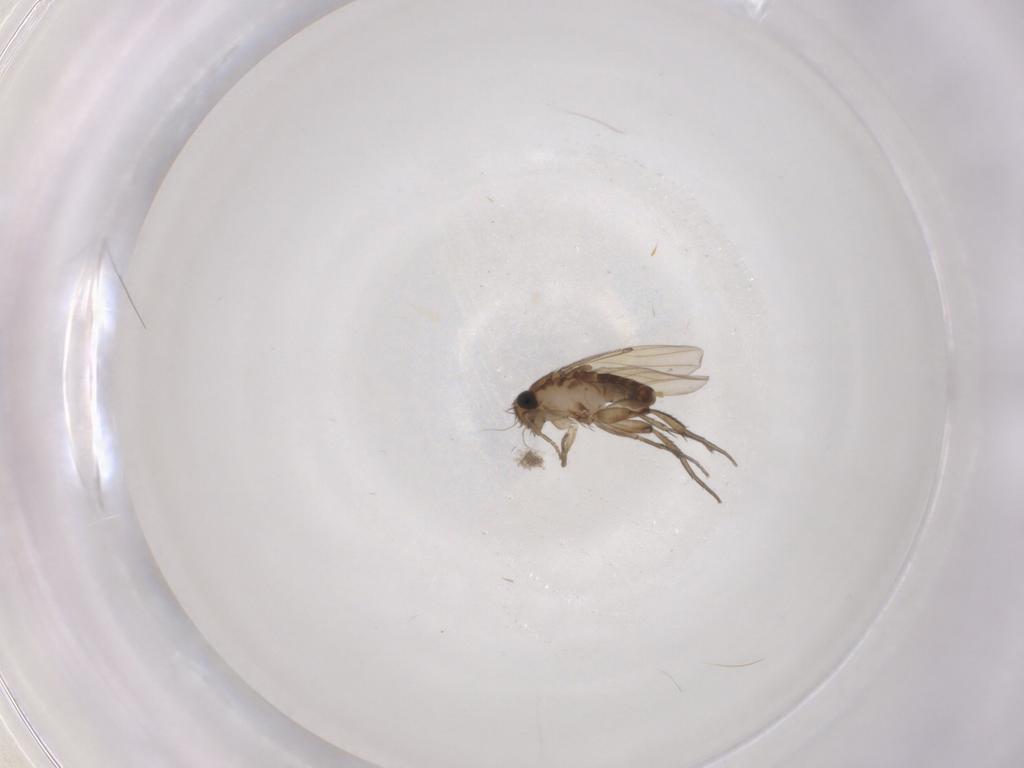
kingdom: Animalia
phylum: Arthropoda
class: Insecta
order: Diptera
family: Phoridae
